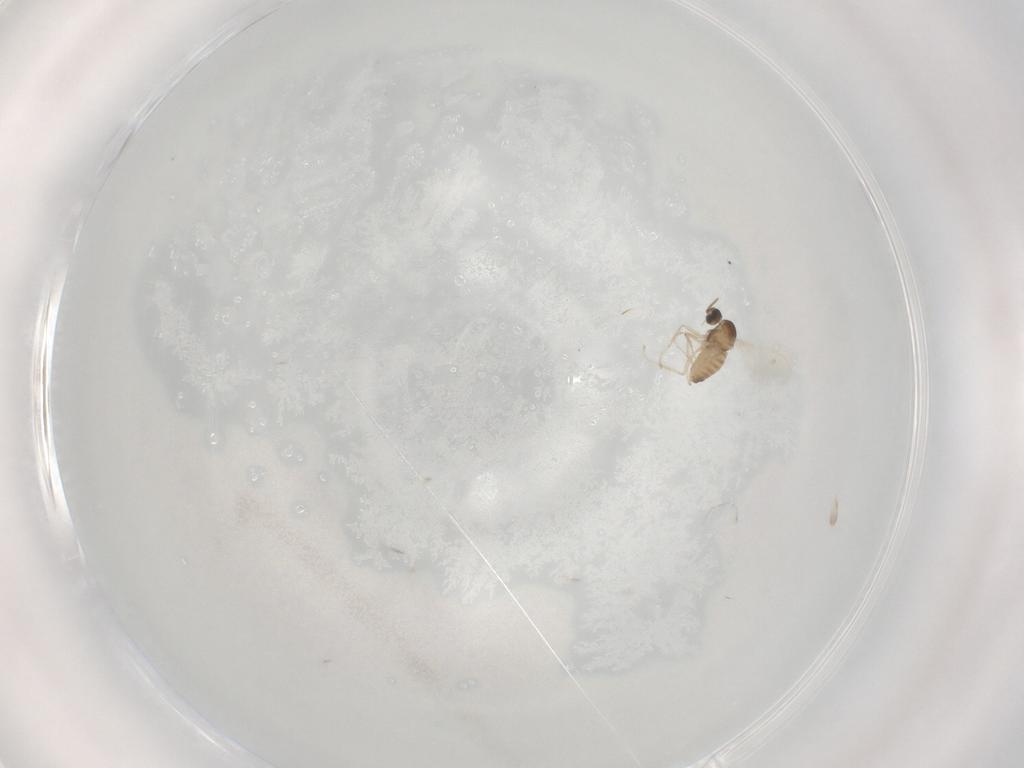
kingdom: Animalia
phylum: Arthropoda
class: Insecta
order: Diptera
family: Cecidomyiidae
